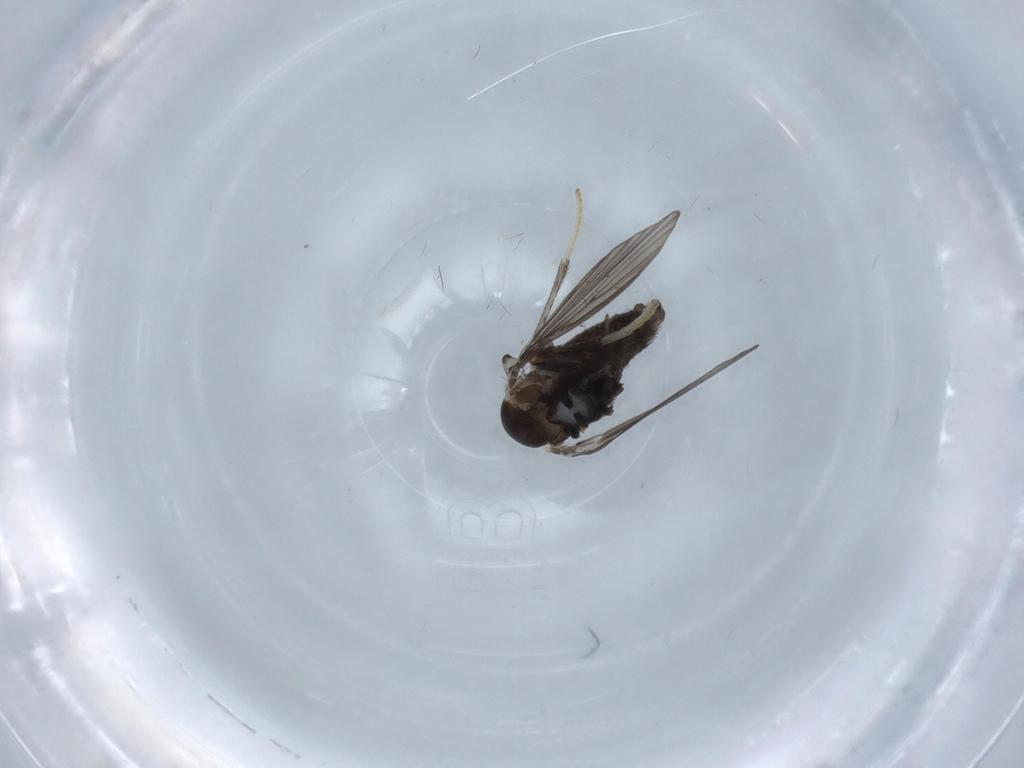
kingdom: Animalia
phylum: Arthropoda
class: Insecta
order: Diptera
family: Psychodidae
